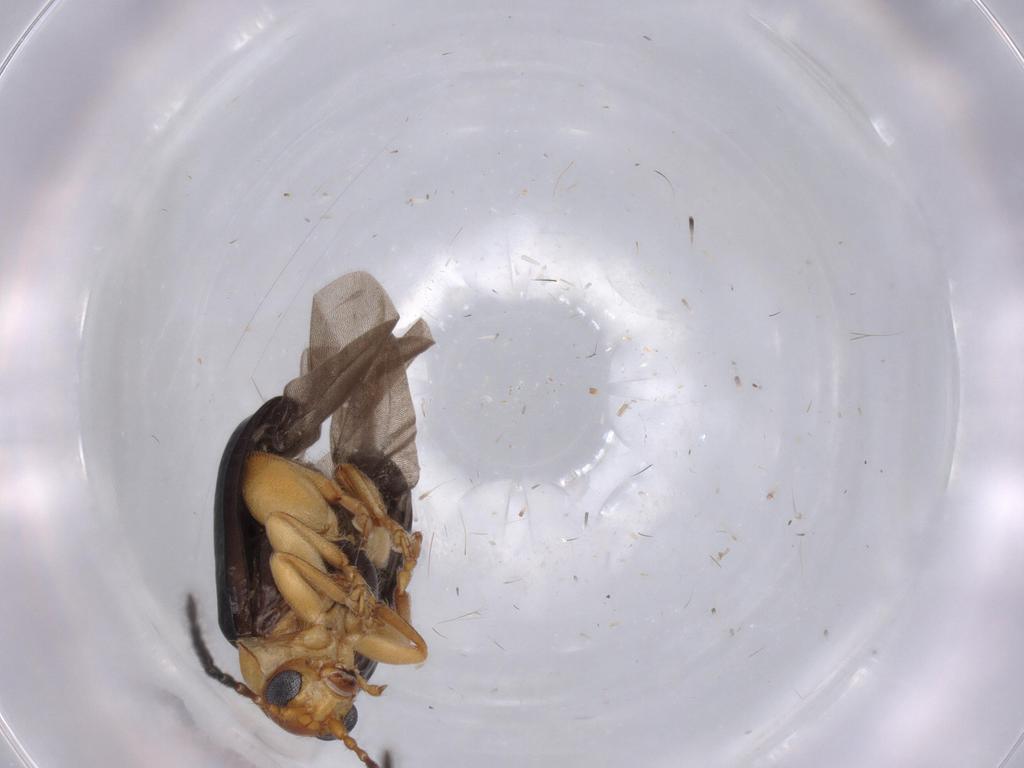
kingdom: Animalia
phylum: Arthropoda
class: Insecta
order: Coleoptera
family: Chrysomelidae
